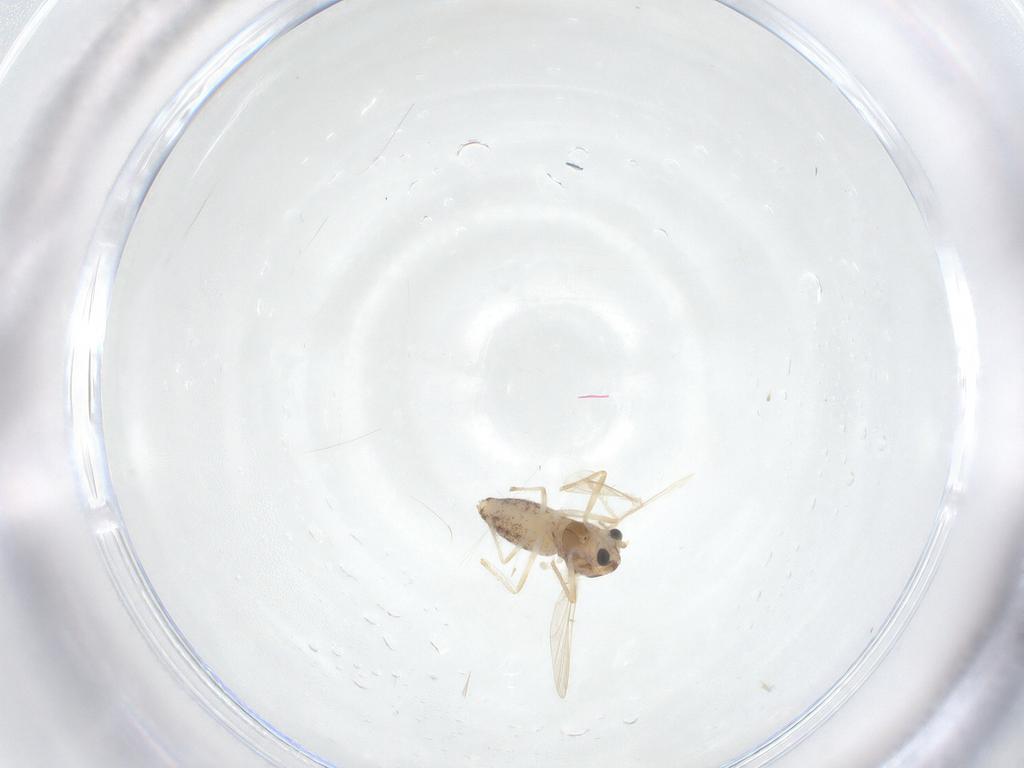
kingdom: Animalia
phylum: Arthropoda
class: Insecta
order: Diptera
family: Chironomidae
